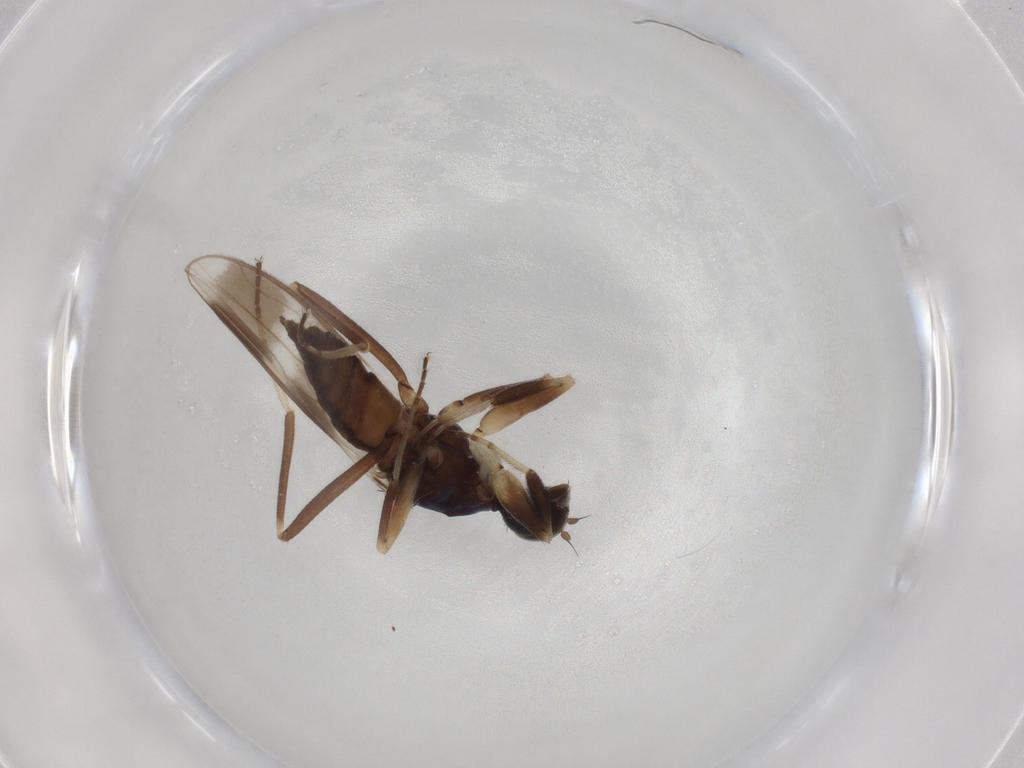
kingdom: Animalia
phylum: Arthropoda
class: Insecta
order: Diptera
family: Hybotidae
